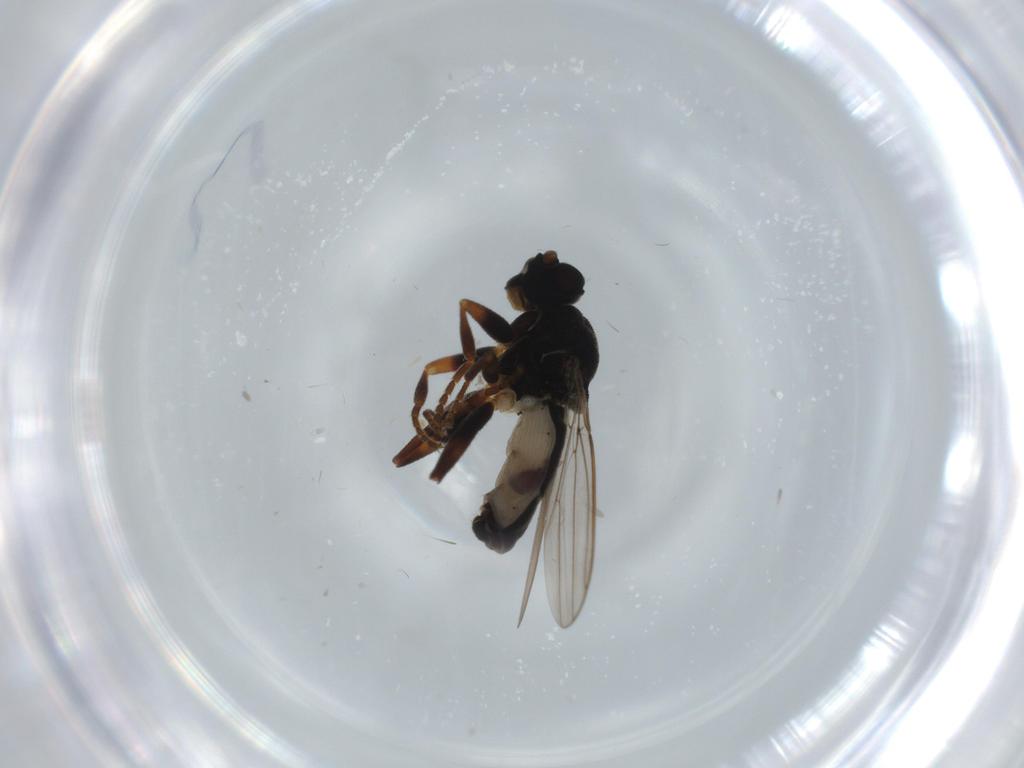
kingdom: Animalia
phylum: Arthropoda
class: Insecta
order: Diptera
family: Sphaeroceridae
